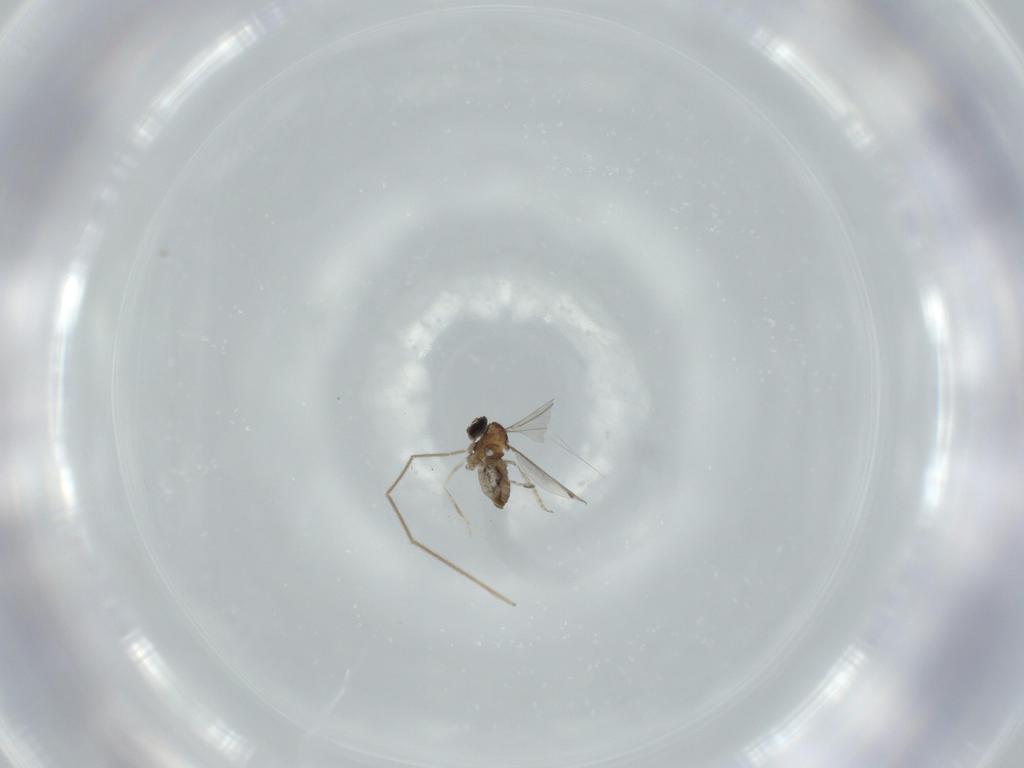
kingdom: Animalia
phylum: Arthropoda
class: Insecta
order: Diptera
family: Cecidomyiidae
